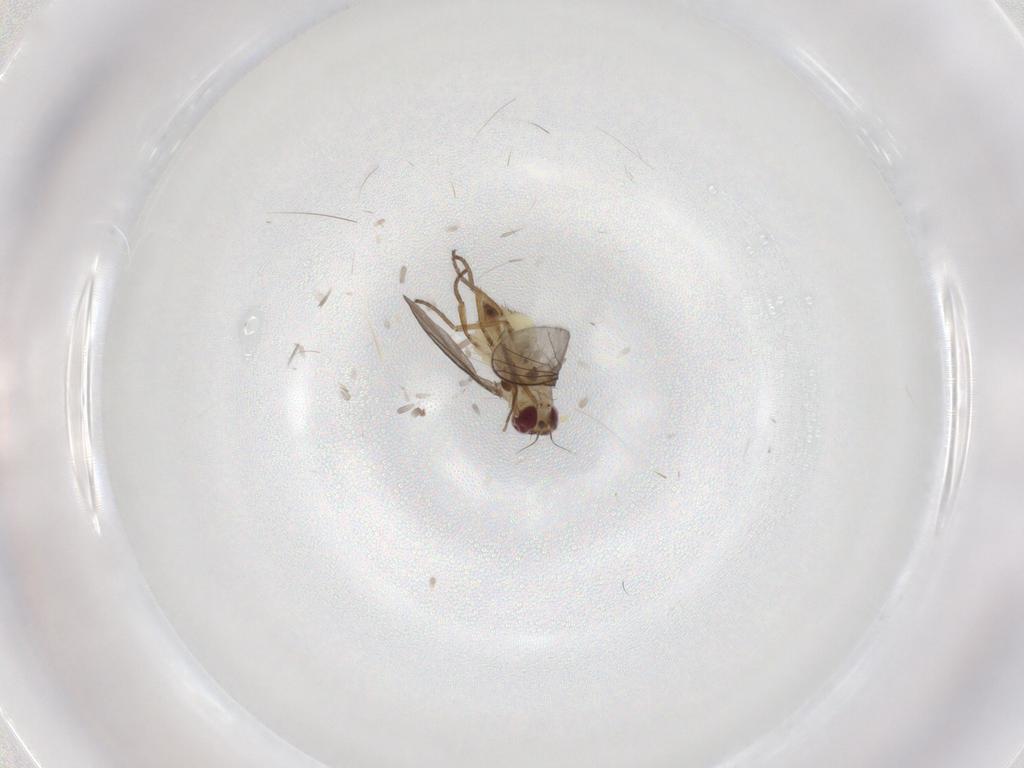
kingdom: Animalia
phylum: Arthropoda
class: Insecta
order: Diptera
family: Agromyzidae
